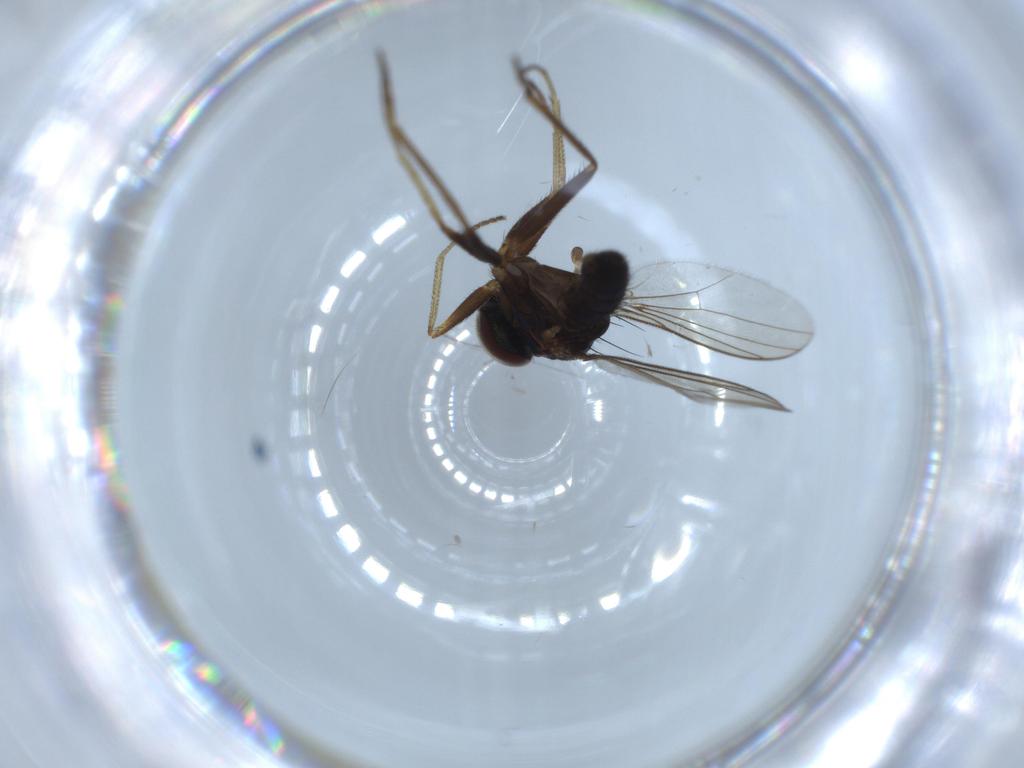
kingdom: Animalia
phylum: Arthropoda
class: Insecta
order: Diptera
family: Cecidomyiidae
